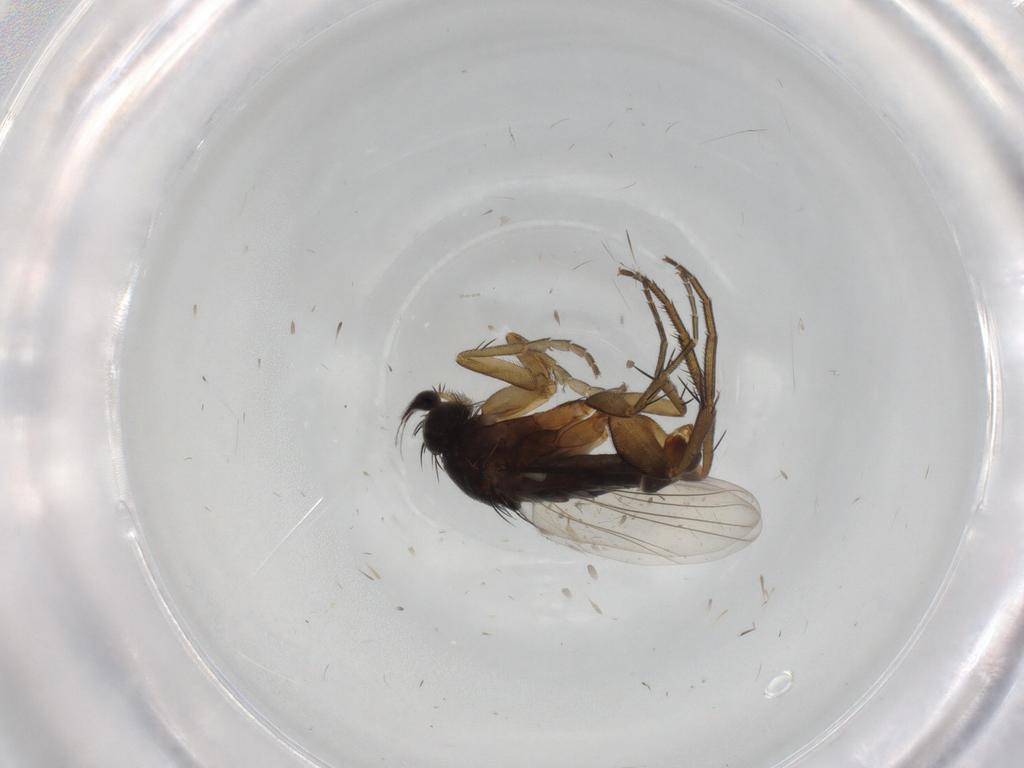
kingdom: Animalia
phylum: Arthropoda
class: Insecta
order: Diptera
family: Phoridae
